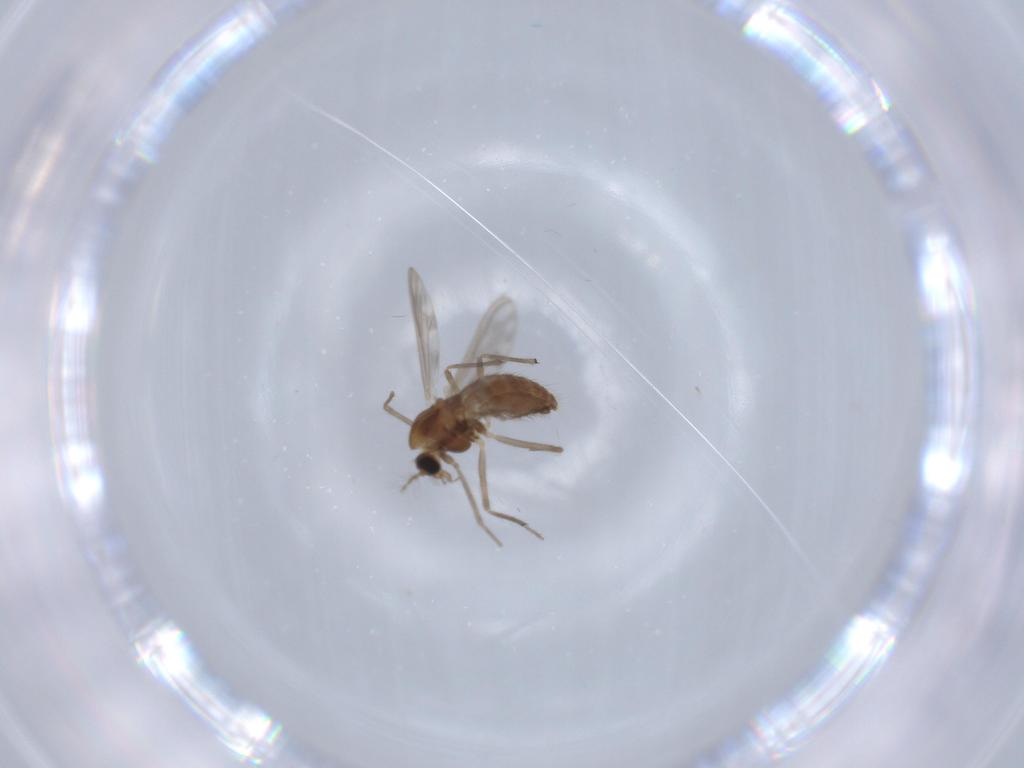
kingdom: Animalia
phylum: Arthropoda
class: Insecta
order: Diptera
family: Chironomidae
